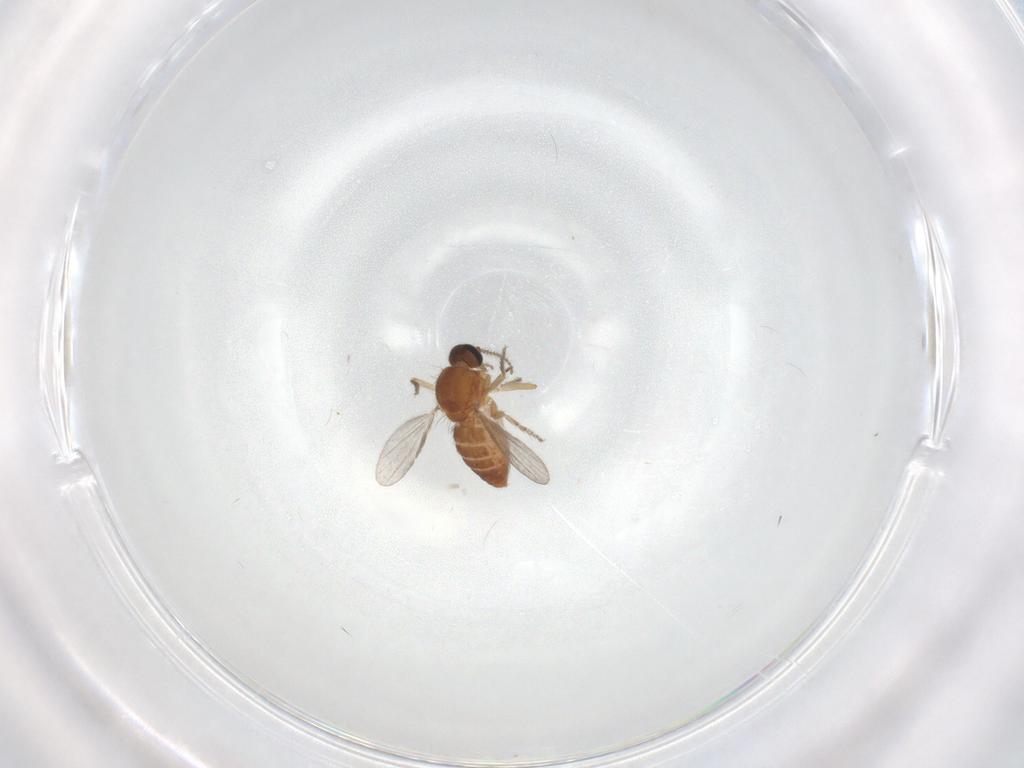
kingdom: Animalia
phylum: Arthropoda
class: Insecta
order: Diptera
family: Ceratopogonidae
